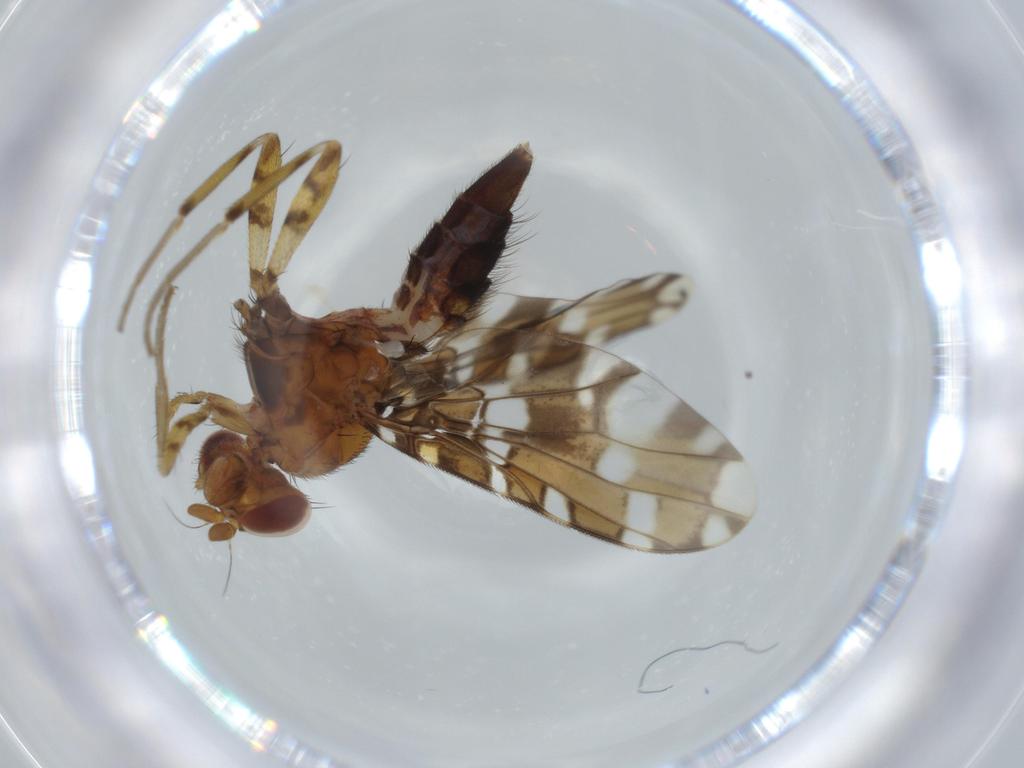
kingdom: Animalia
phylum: Arthropoda
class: Insecta
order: Diptera
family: Ulidiidae
